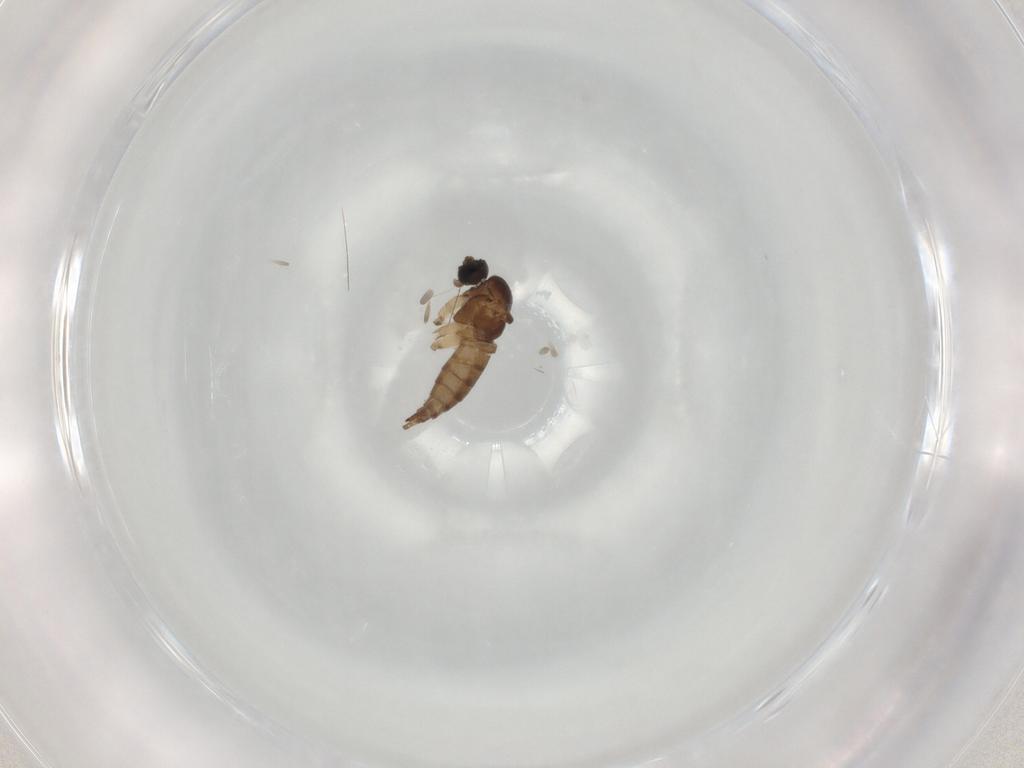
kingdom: Animalia
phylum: Arthropoda
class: Insecta
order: Diptera
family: Sciaridae
